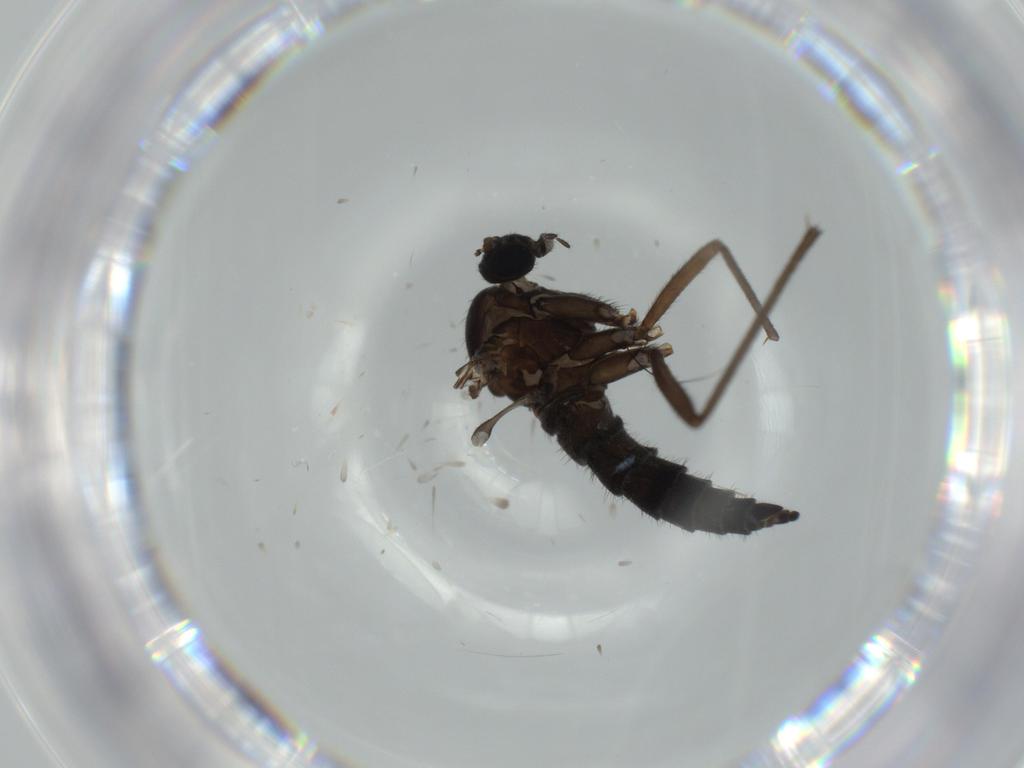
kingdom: Animalia
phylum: Arthropoda
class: Insecta
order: Diptera
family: Sciaridae
